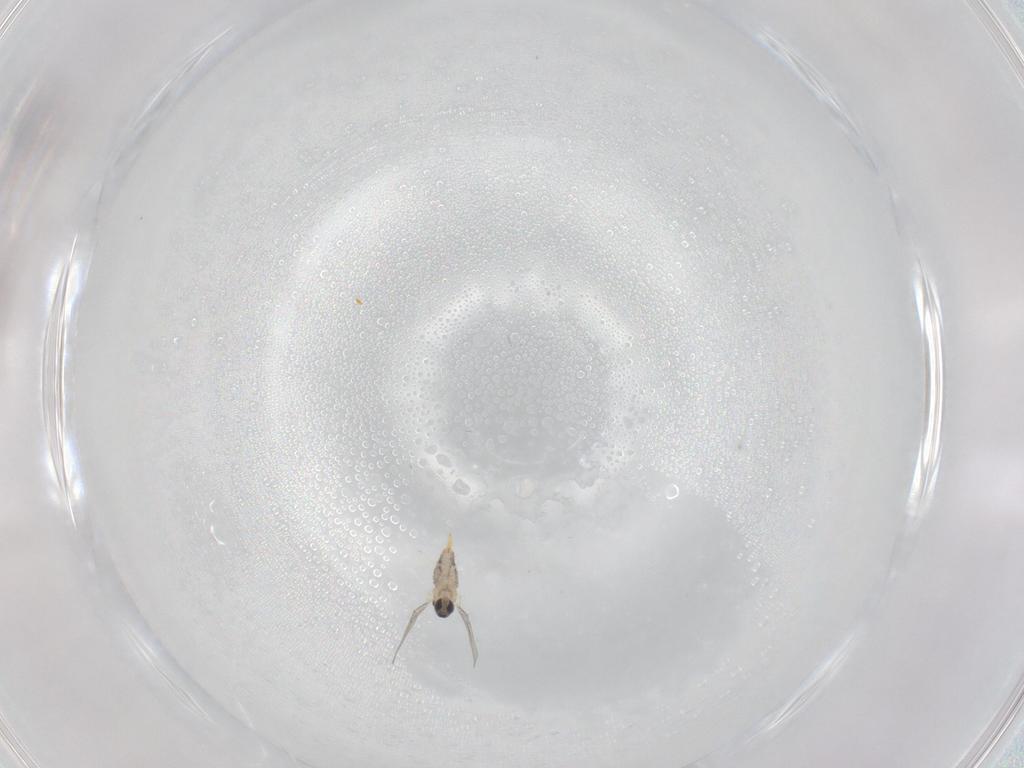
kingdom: Animalia
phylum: Arthropoda
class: Insecta
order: Diptera
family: Cecidomyiidae
